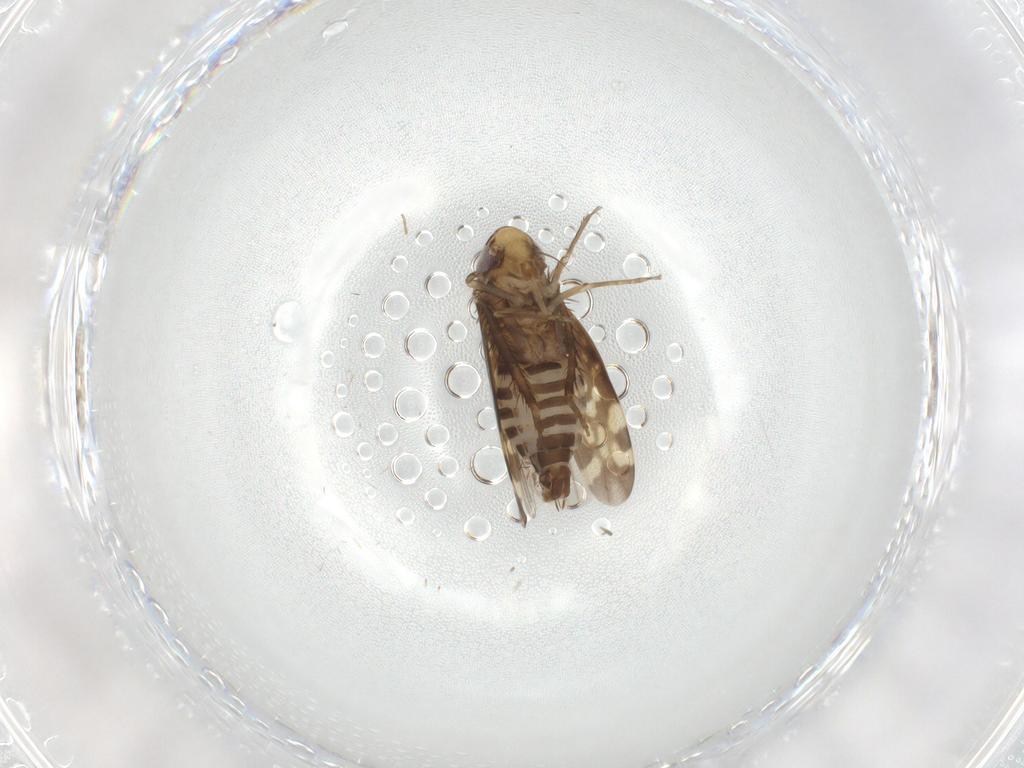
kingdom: Animalia
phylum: Arthropoda
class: Insecta
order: Hemiptera
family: Cicadellidae
